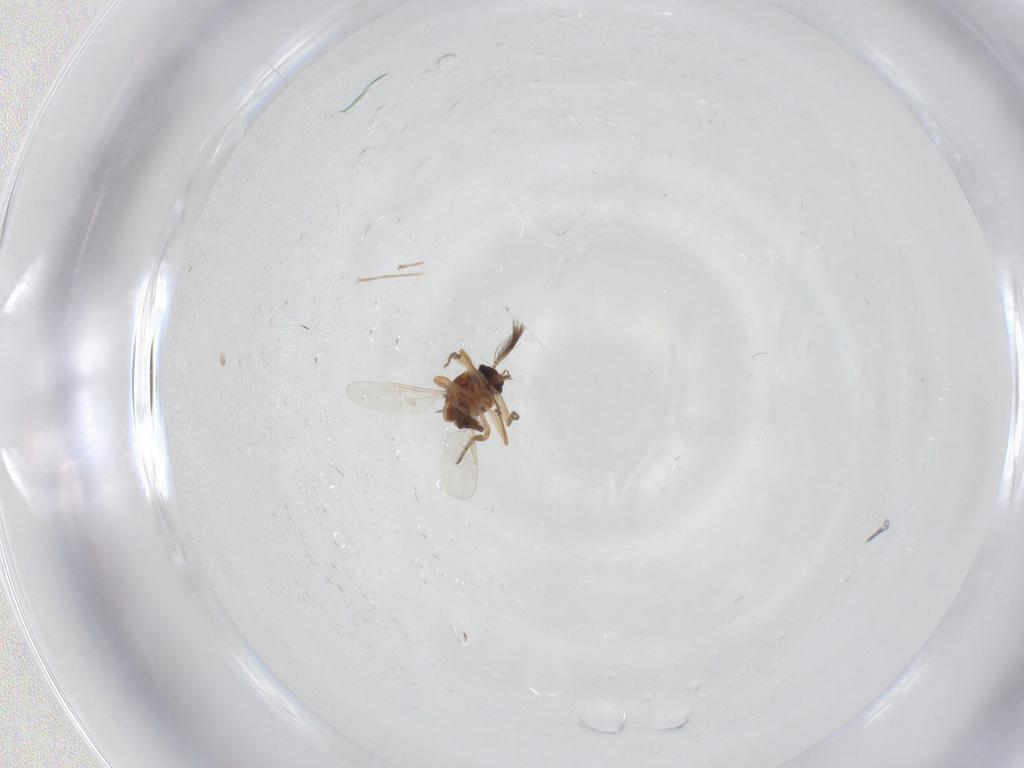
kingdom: Animalia
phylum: Arthropoda
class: Insecta
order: Diptera
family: Ceratopogonidae
